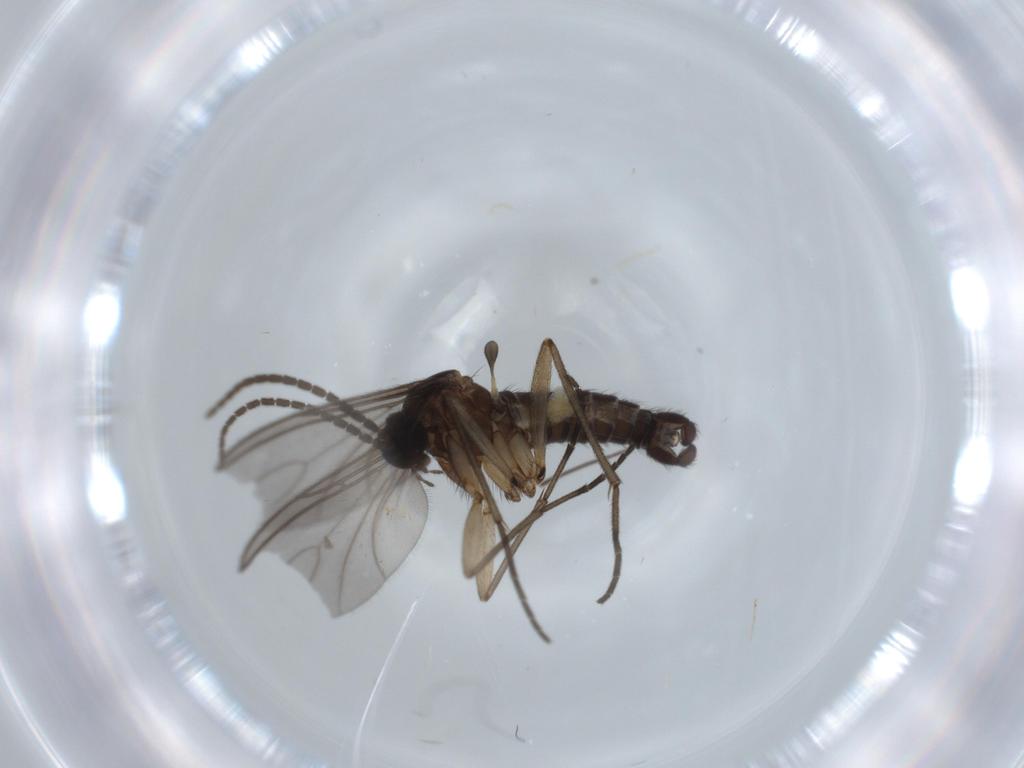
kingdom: Animalia
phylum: Arthropoda
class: Insecta
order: Diptera
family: Sciaridae
